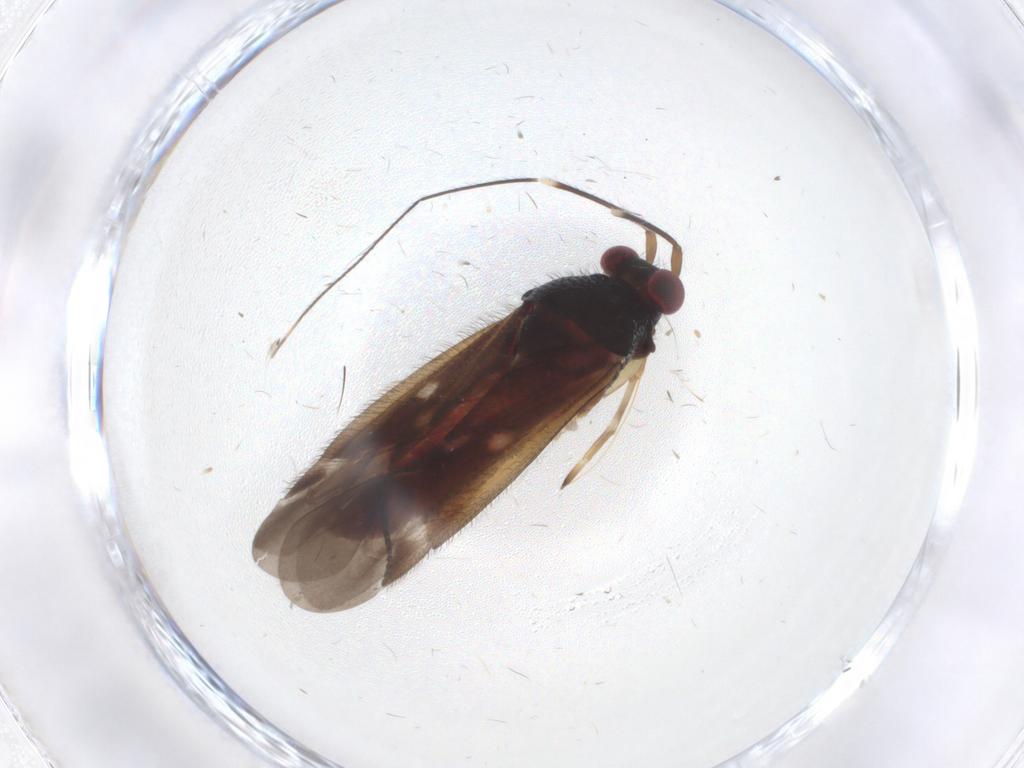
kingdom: Animalia
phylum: Arthropoda
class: Insecta
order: Hemiptera
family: Miridae
